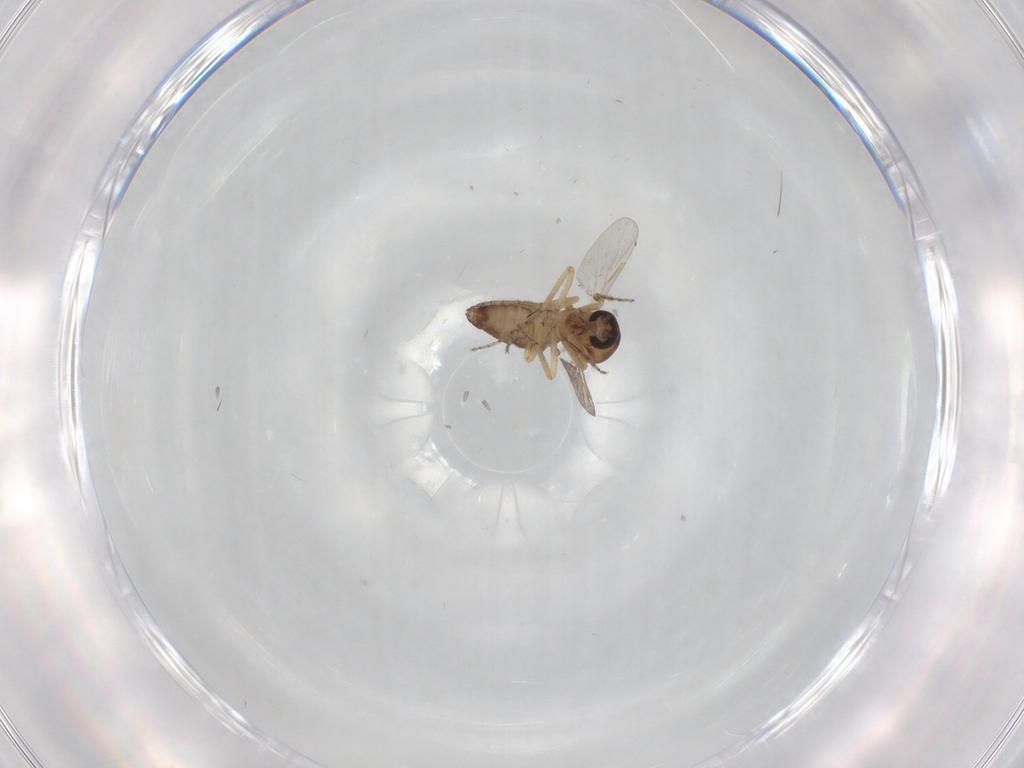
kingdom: Animalia
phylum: Arthropoda
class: Insecta
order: Diptera
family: Ceratopogonidae
